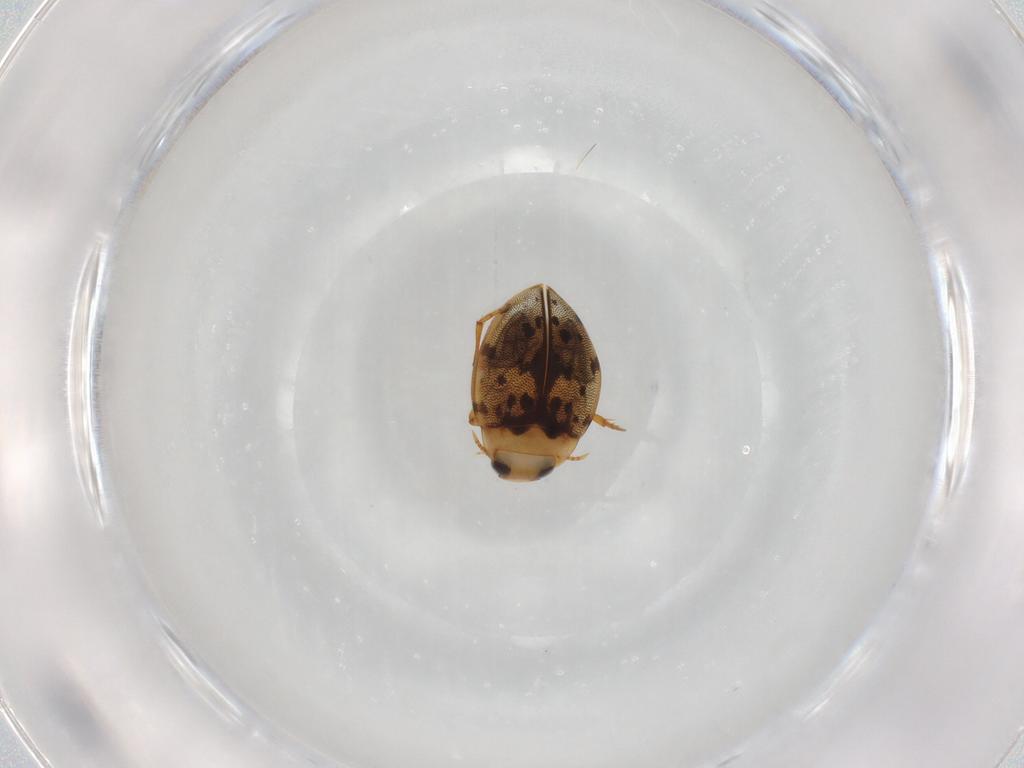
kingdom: Animalia
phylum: Arthropoda
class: Insecta
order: Coleoptera
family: Dytiscidae
